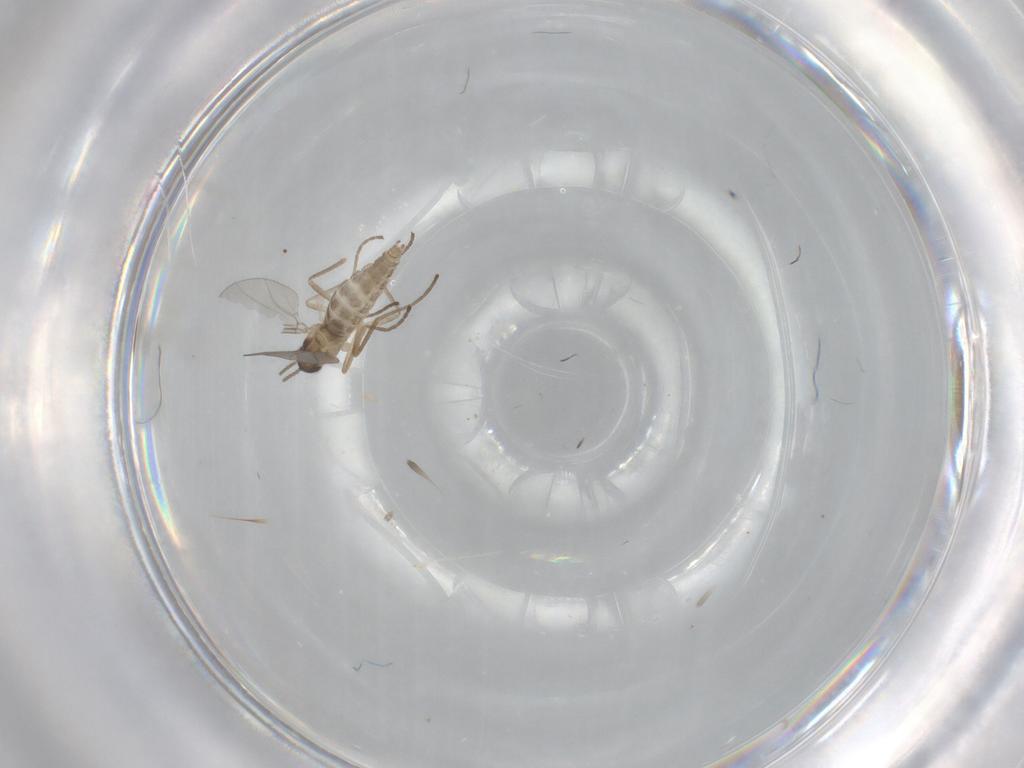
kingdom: Animalia
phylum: Arthropoda
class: Insecta
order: Diptera
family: Cecidomyiidae
